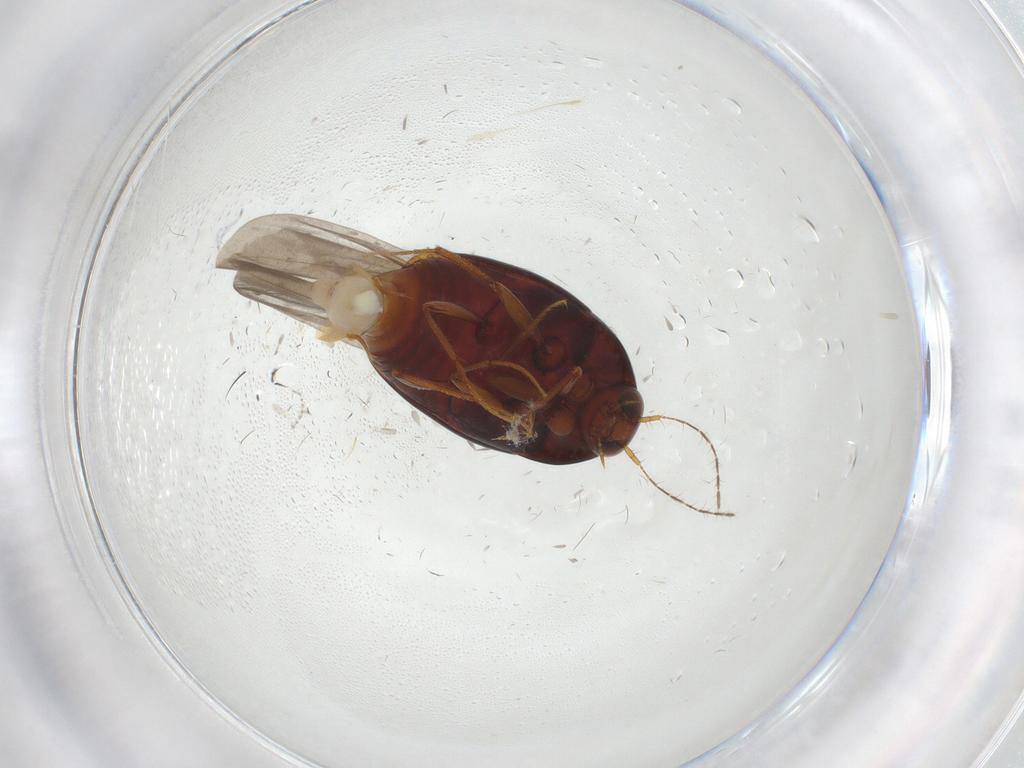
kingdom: Animalia
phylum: Arthropoda
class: Insecta
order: Coleoptera
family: Staphylinidae
